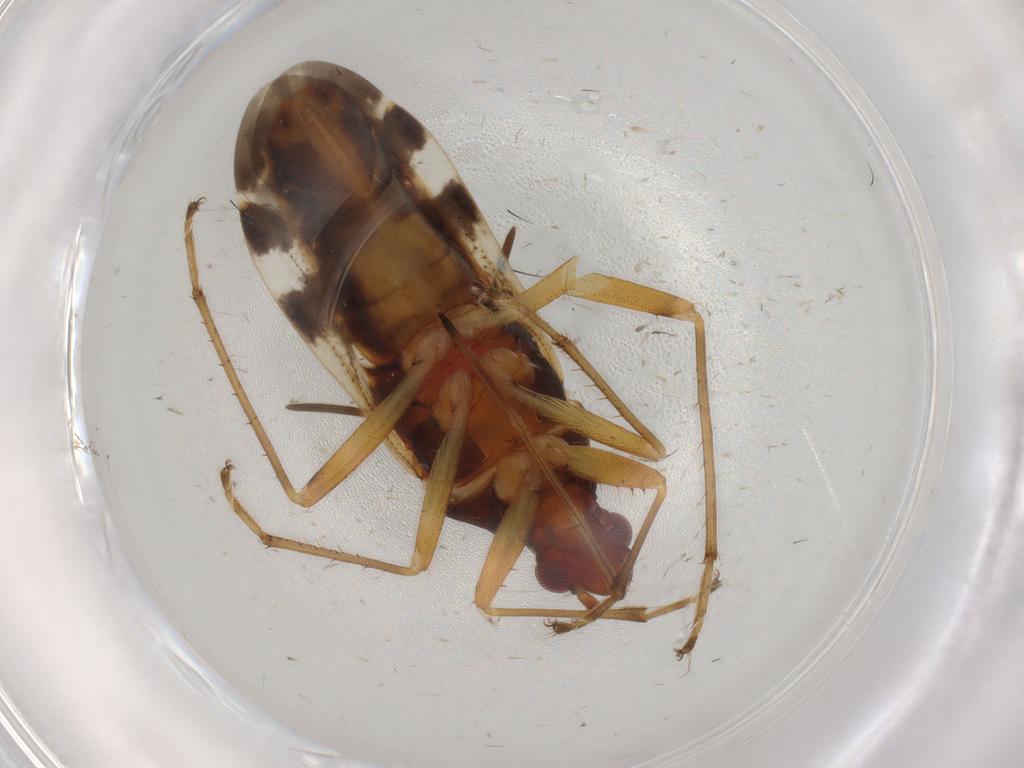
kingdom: Animalia
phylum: Arthropoda
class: Insecta
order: Hemiptera
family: Rhyparochromidae
